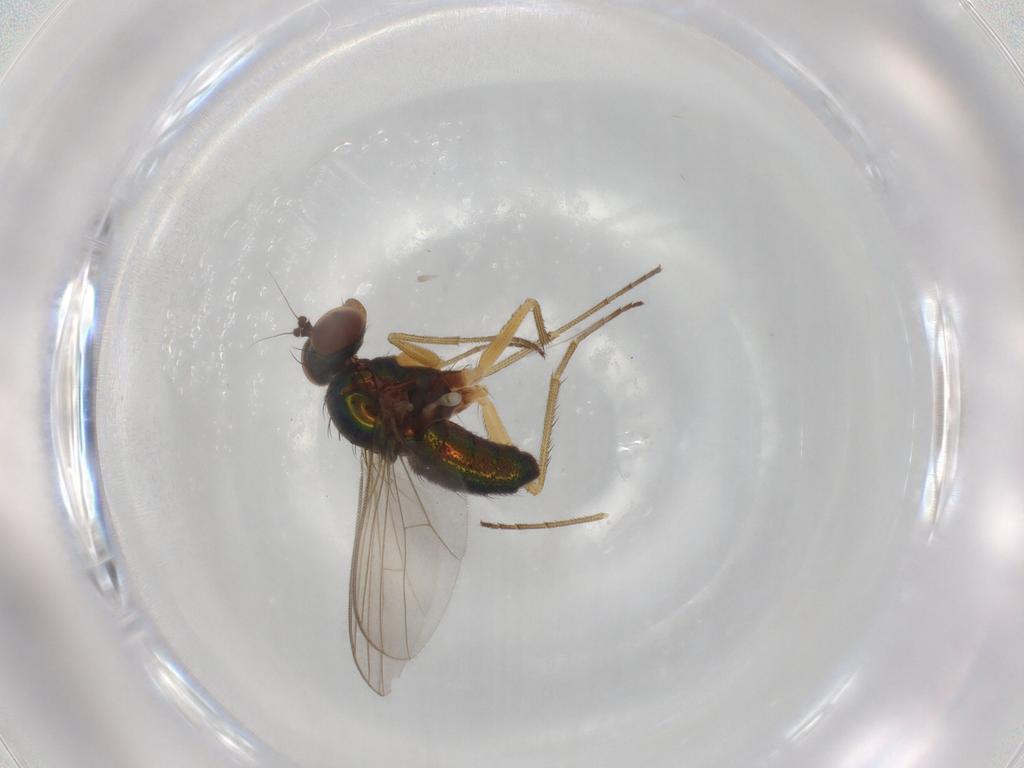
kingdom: Animalia
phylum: Arthropoda
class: Insecta
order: Diptera
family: Dolichopodidae
